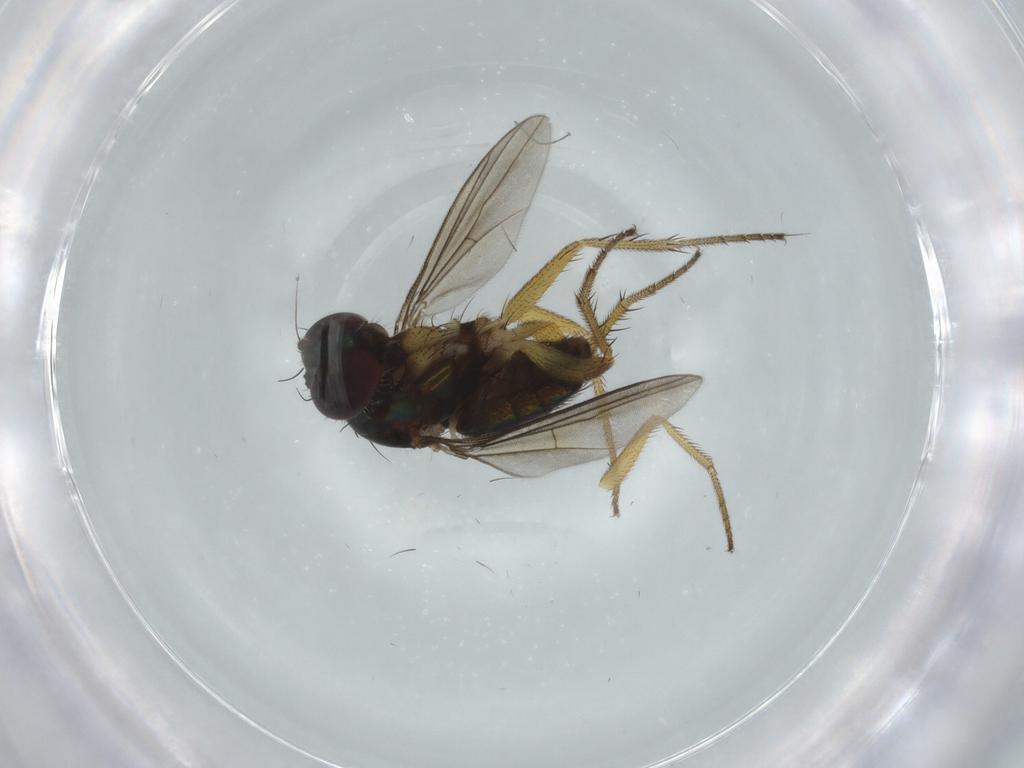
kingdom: Animalia
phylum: Arthropoda
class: Insecta
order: Diptera
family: Dolichopodidae
